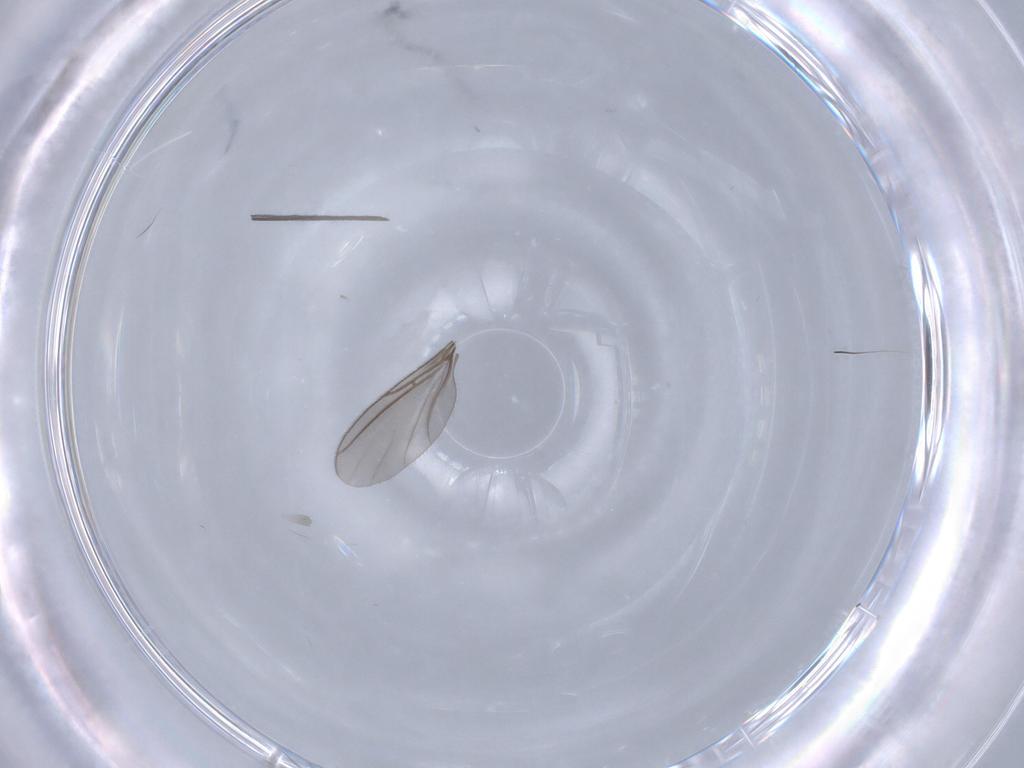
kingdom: Animalia
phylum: Arthropoda
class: Insecta
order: Diptera
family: Sciaridae
